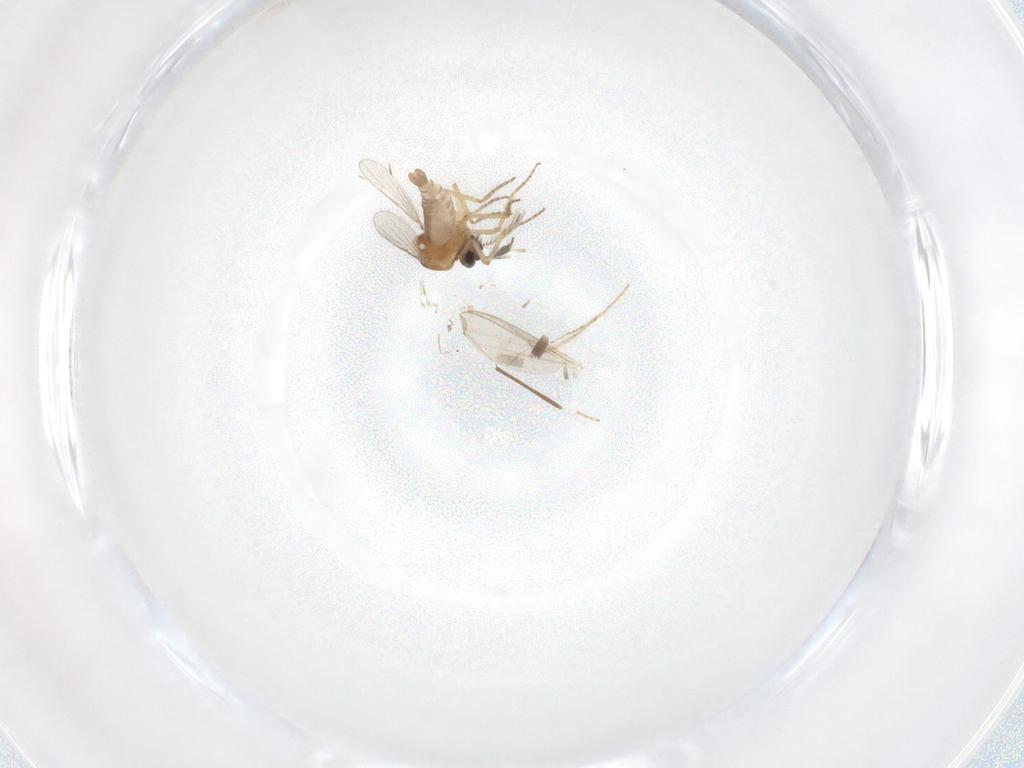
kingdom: Animalia
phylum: Arthropoda
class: Insecta
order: Diptera
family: Chironomidae
